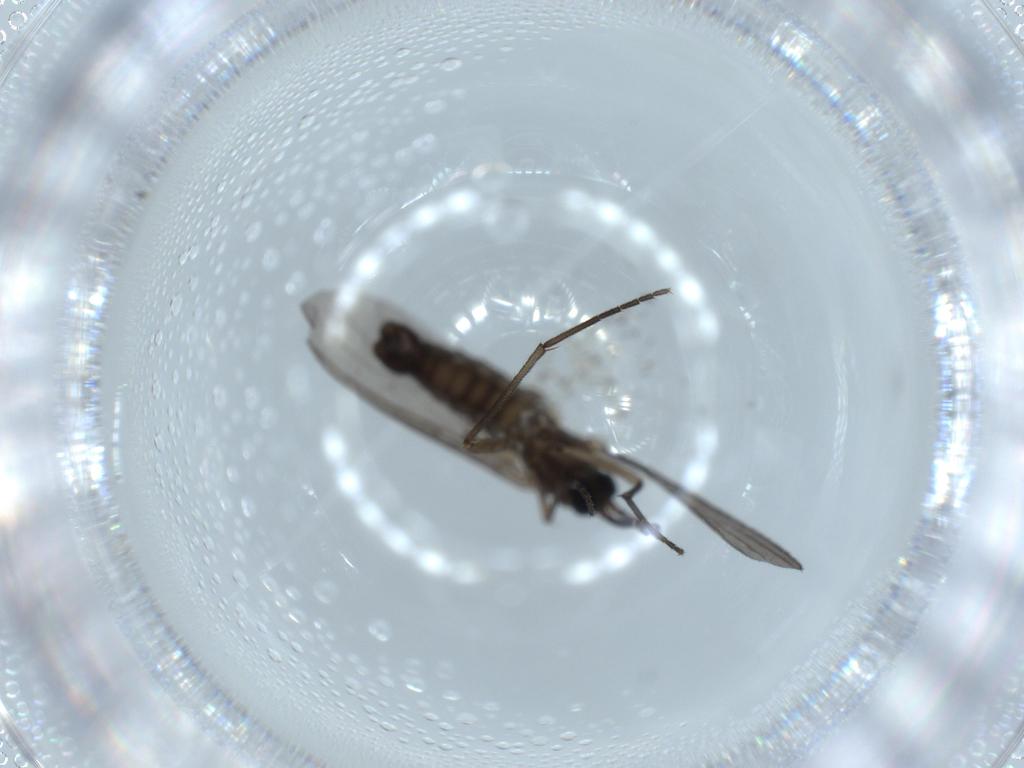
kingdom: Animalia
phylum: Arthropoda
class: Insecta
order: Diptera
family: Sciaridae
